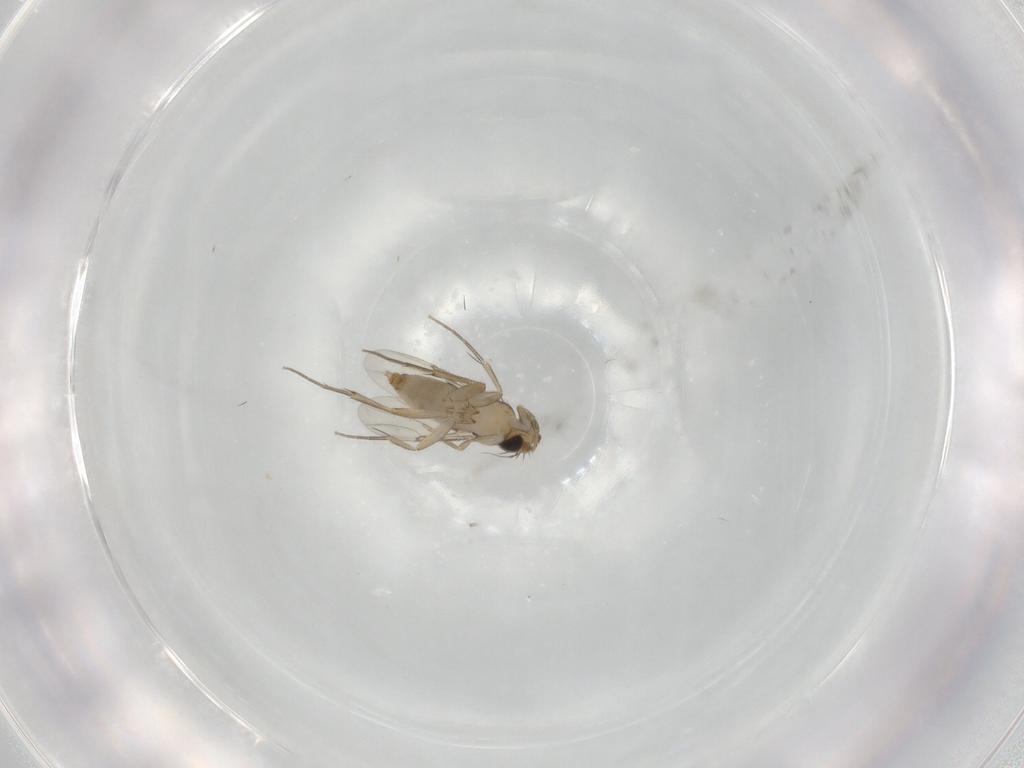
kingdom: Animalia
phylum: Arthropoda
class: Insecta
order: Diptera
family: Phoridae
